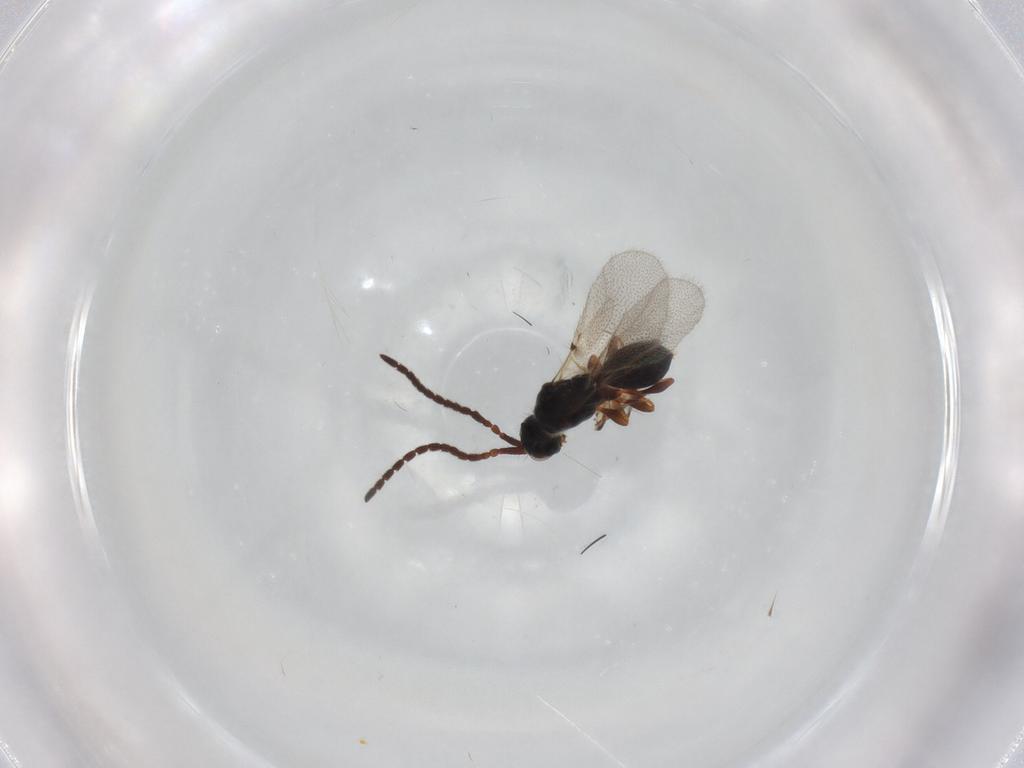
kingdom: Animalia
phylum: Arthropoda
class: Insecta
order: Hymenoptera
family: Diapriidae
